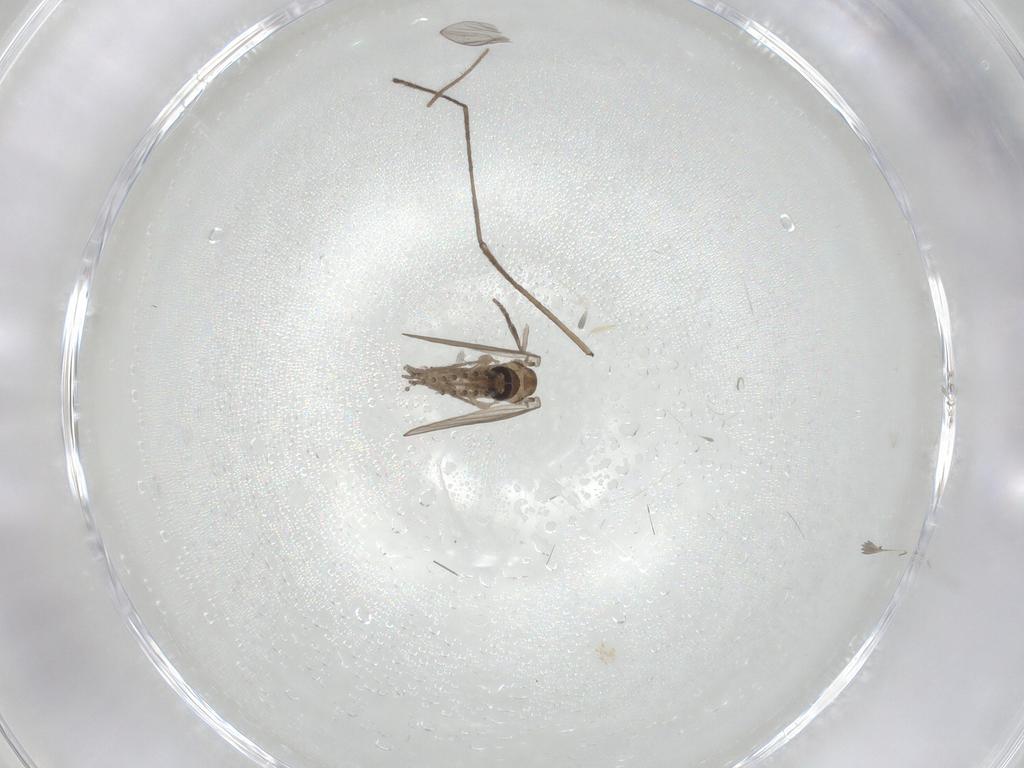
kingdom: Animalia
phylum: Arthropoda
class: Insecta
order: Diptera
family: Psychodidae
